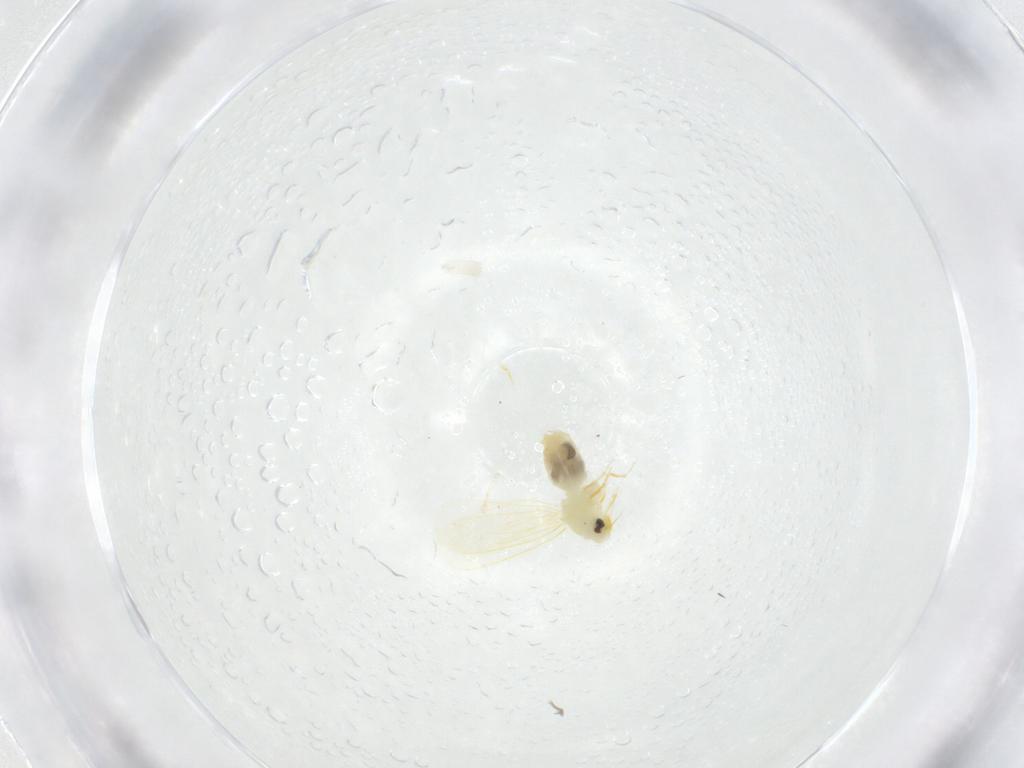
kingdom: Animalia
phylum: Arthropoda
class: Insecta
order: Hemiptera
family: Aleyrodidae
